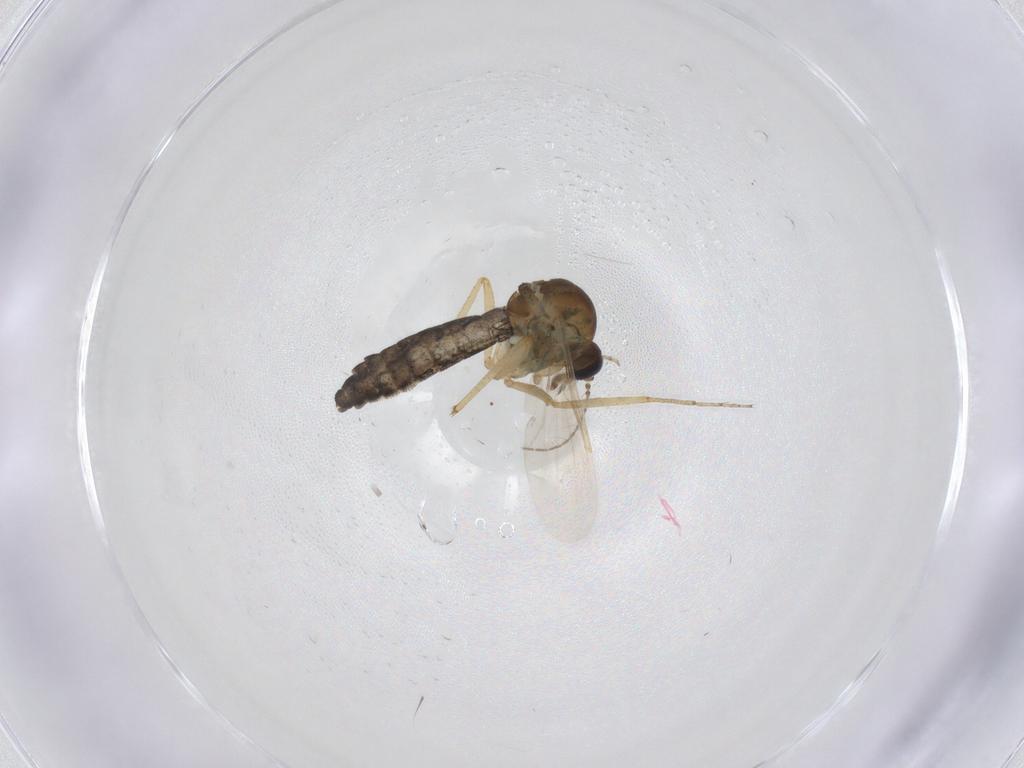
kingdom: Animalia
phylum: Arthropoda
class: Insecta
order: Diptera
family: Ceratopogonidae
